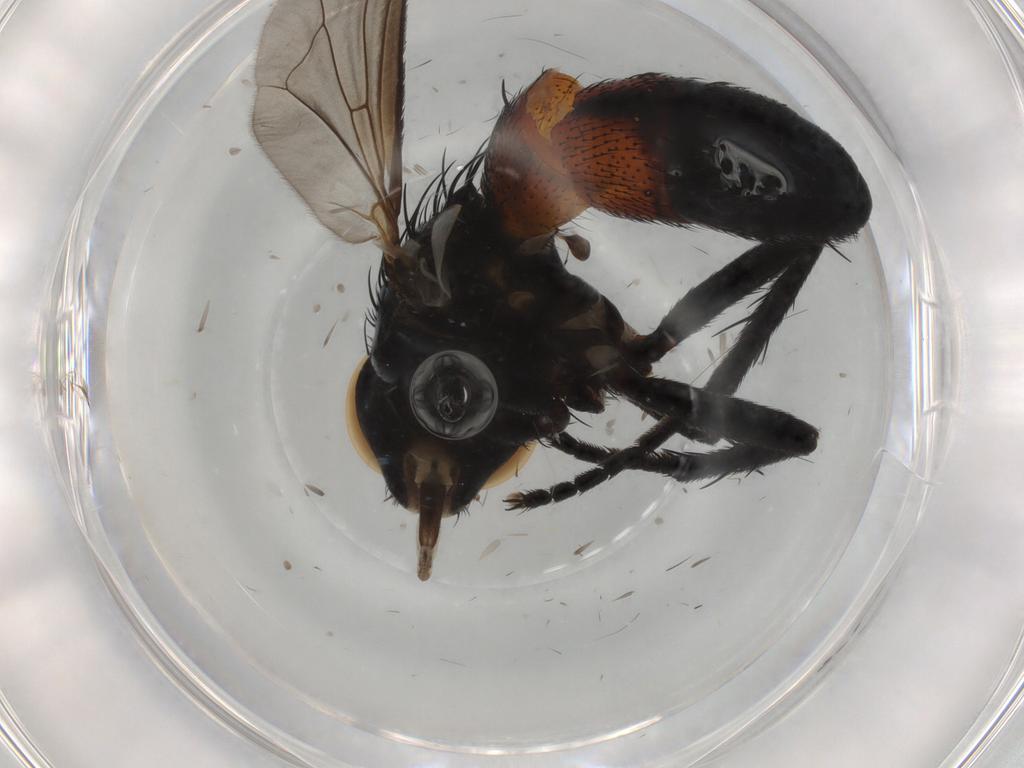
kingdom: Animalia
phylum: Arthropoda
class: Insecta
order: Diptera
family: Tachinidae
